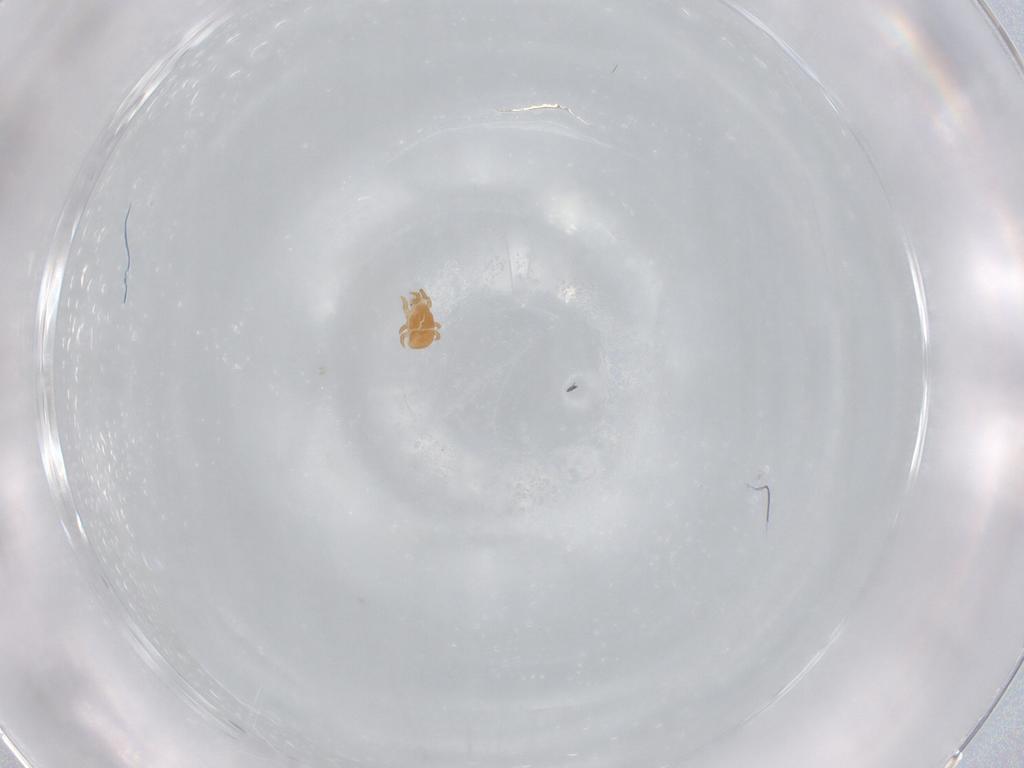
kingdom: Animalia
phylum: Arthropoda
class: Arachnida
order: Mesostigmata
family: Digamasellidae
